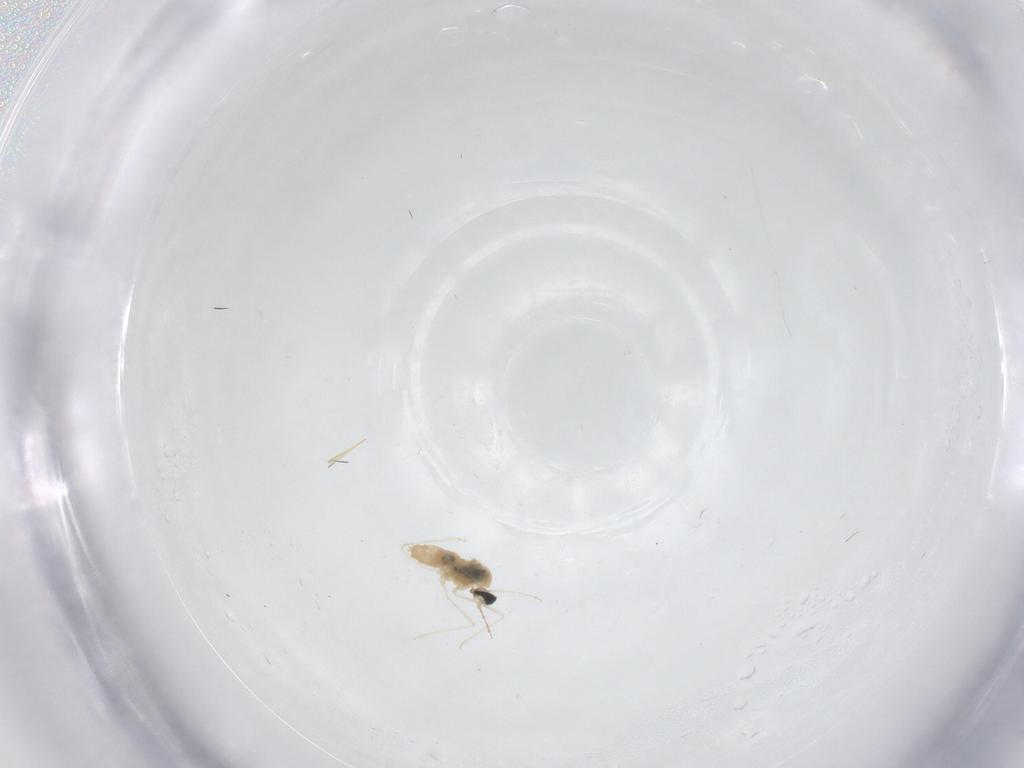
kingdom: Animalia
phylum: Arthropoda
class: Insecta
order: Diptera
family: Cecidomyiidae
